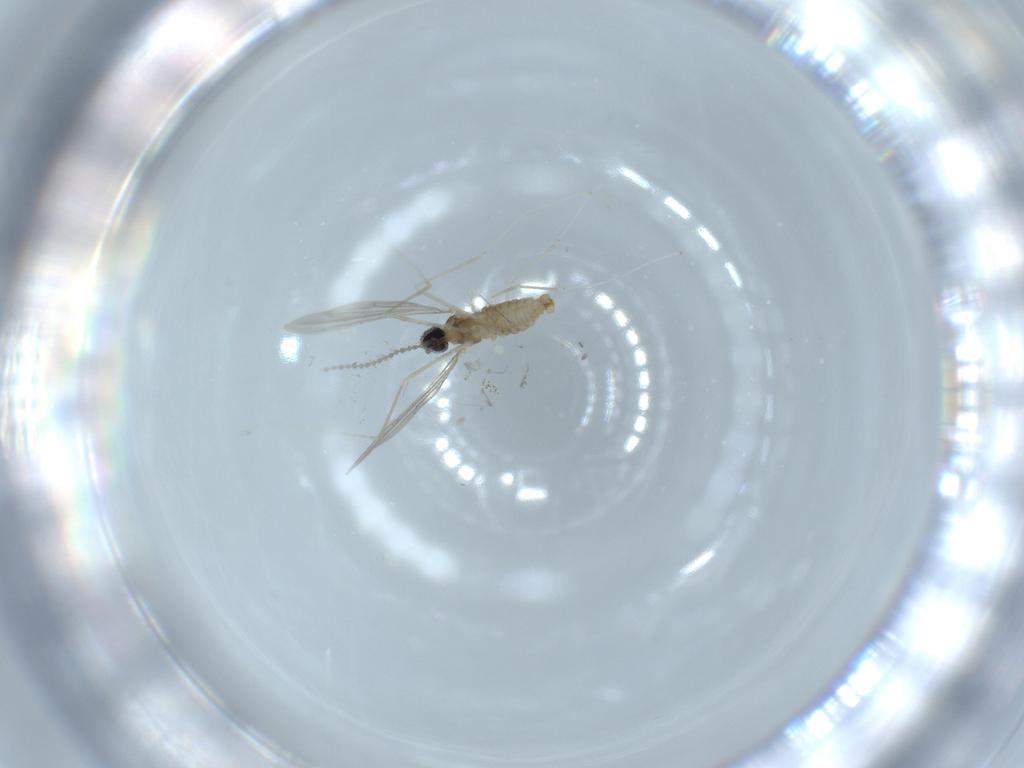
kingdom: Animalia
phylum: Arthropoda
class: Insecta
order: Diptera
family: Cecidomyiidae
